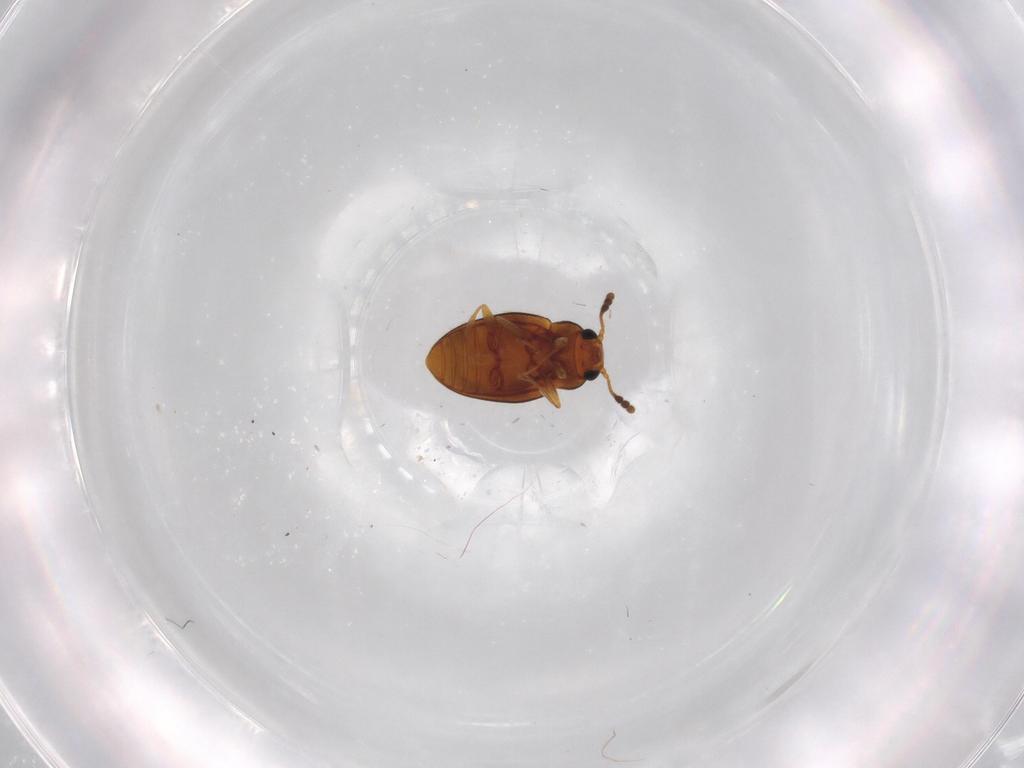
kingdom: Animalia
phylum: Arthropoda
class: Insecta
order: Coleoptera
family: Erotylidae
